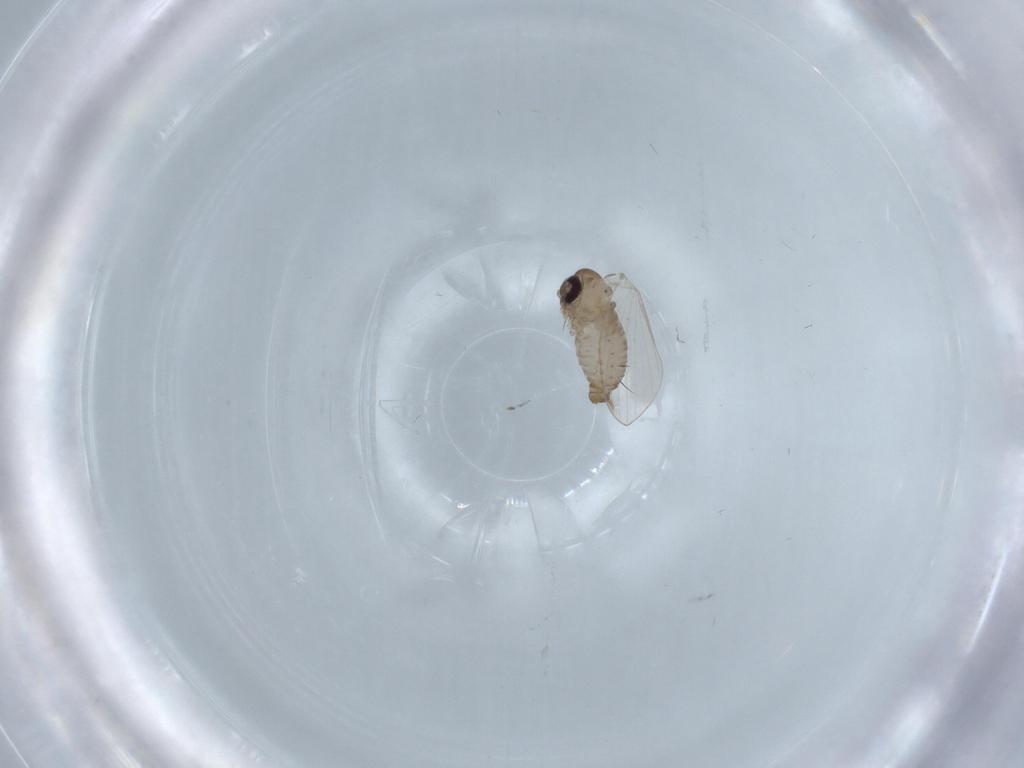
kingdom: Animalia
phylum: Arthropoda
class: Insecta
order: Diptera
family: Psychodidae
